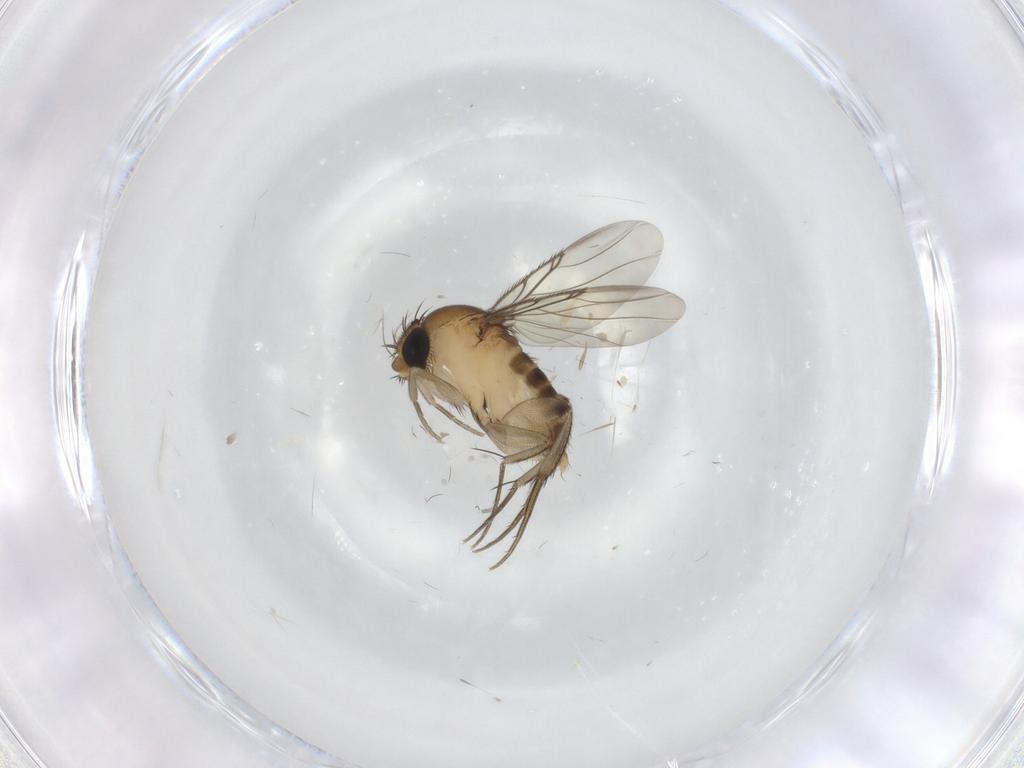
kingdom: Animalia
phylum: Arthropoda
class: Insecta
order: Diptera
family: Phoridae
